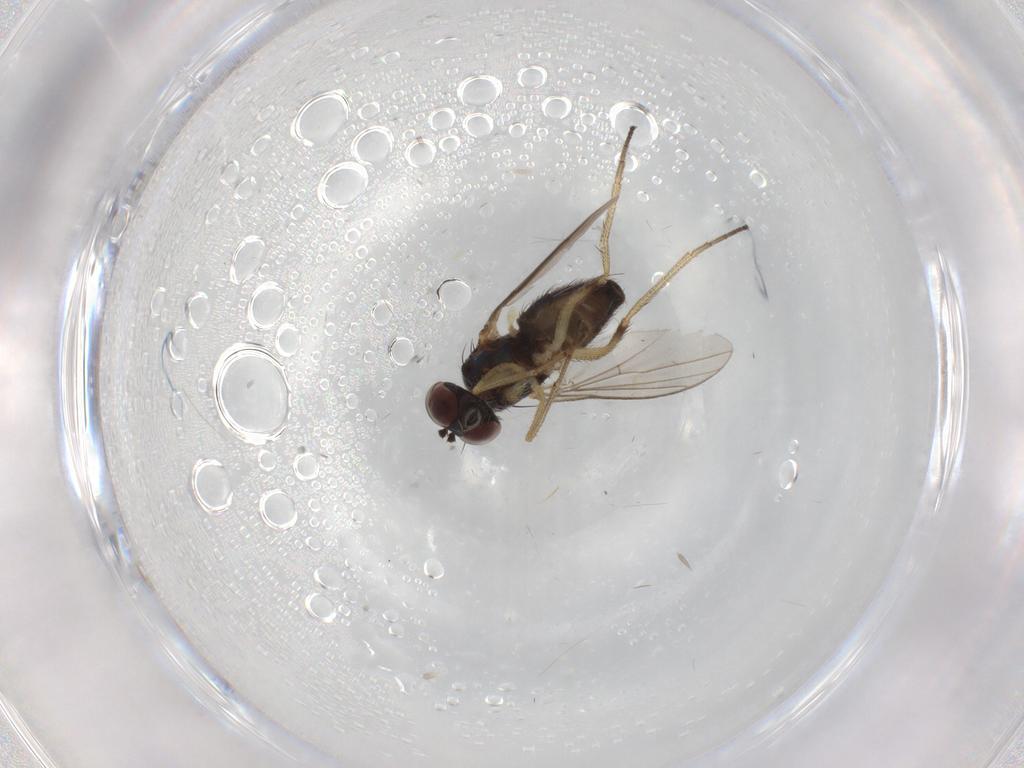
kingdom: Animalia
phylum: Arthropoda
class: Insecta
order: Diptera
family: Dolichopodidae
